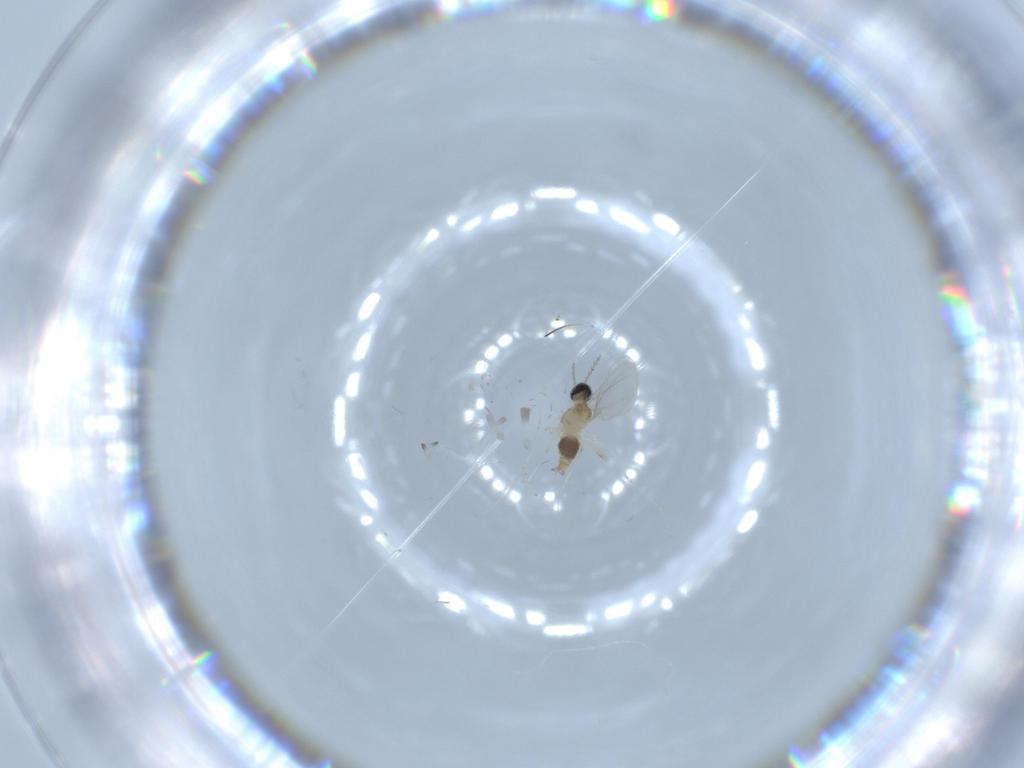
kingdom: Animalia
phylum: Arthropoda
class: Insecta
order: Diptera
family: Cecidomyiidae
